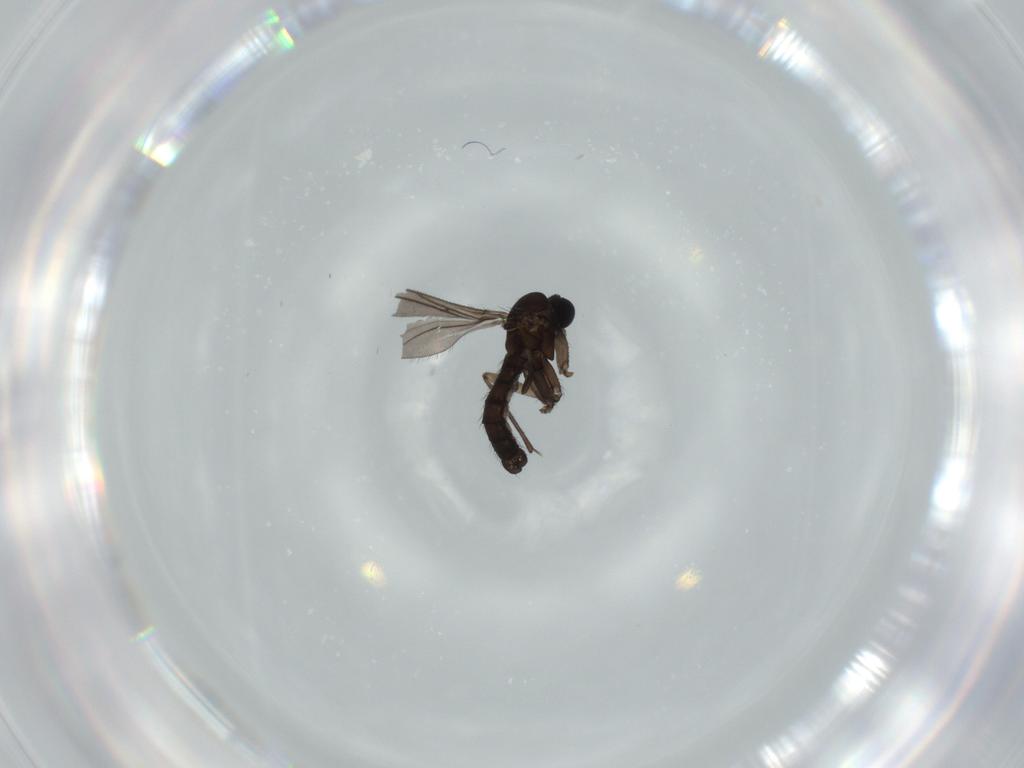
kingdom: Animalia
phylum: Arthropoda
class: Insecta
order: Diptera
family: Sciaridae
